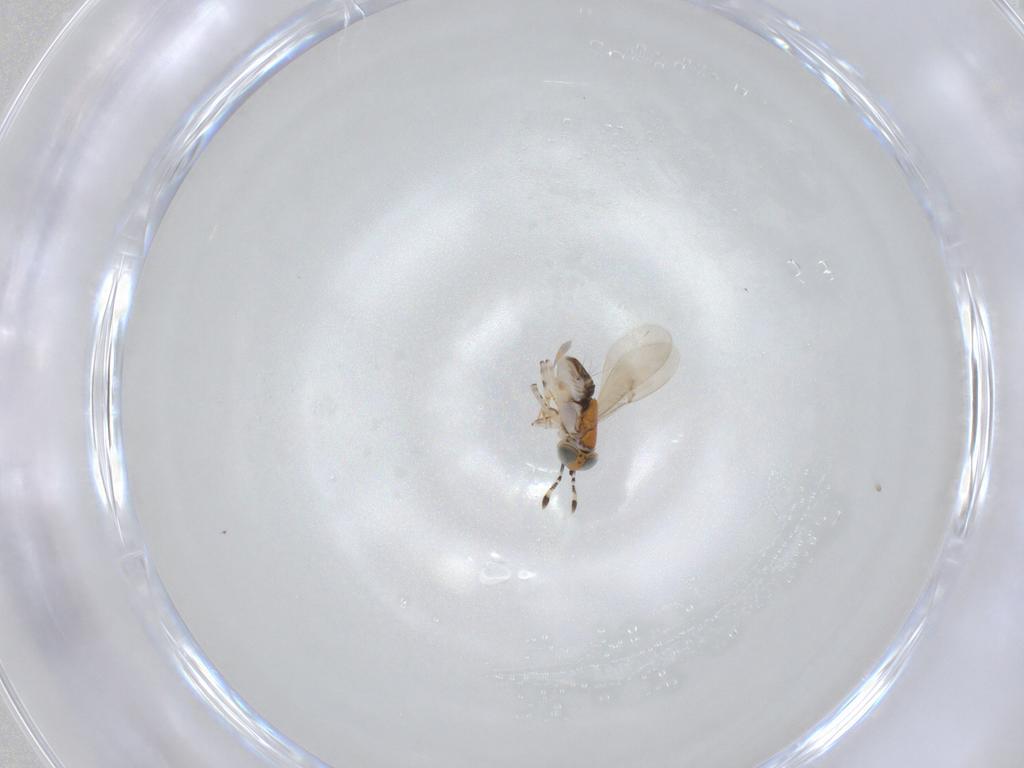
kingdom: Animalia
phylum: Arthropoda
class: Insecta
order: Hymenoptera
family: Encyrtidae
